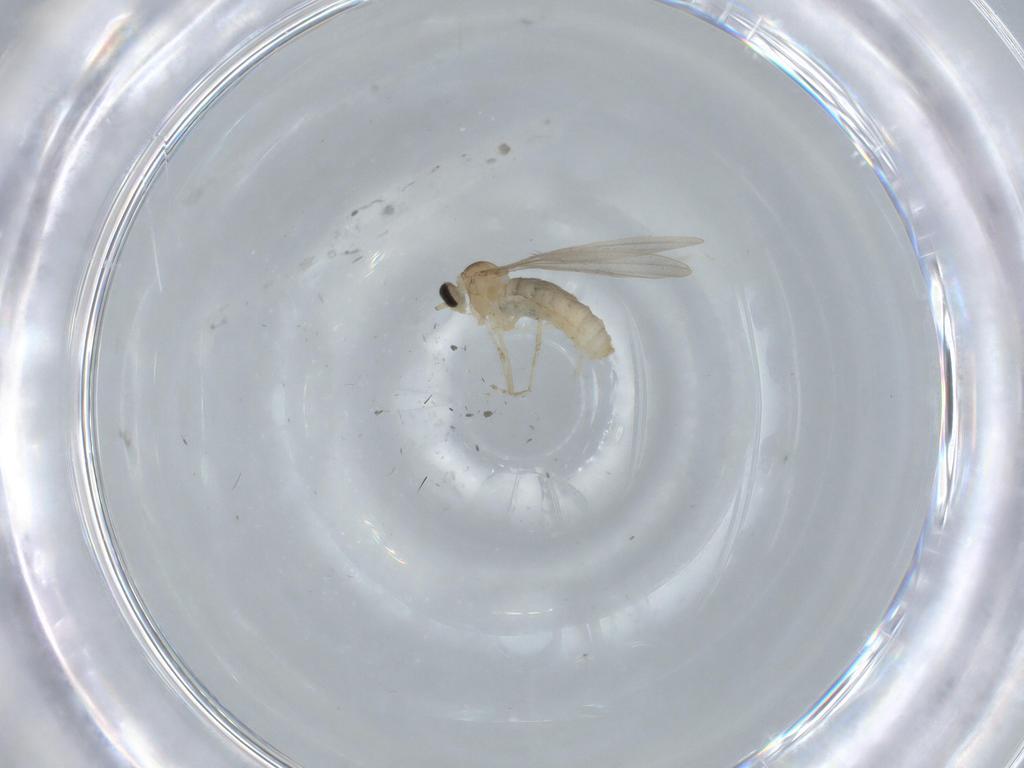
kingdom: Animalia
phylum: Arthropoda
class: Insecta
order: Diptera
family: Cecidomyiidae
